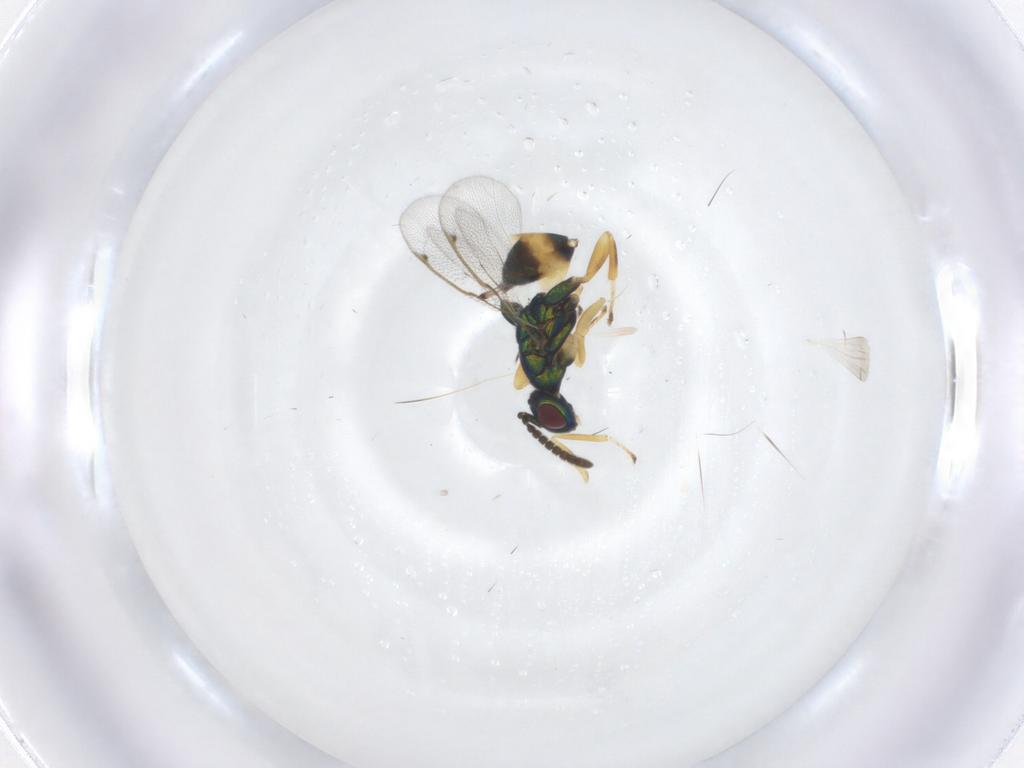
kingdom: Animalia
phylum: Arthropoda
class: Insecta
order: Hymenoptera
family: Torymidae
